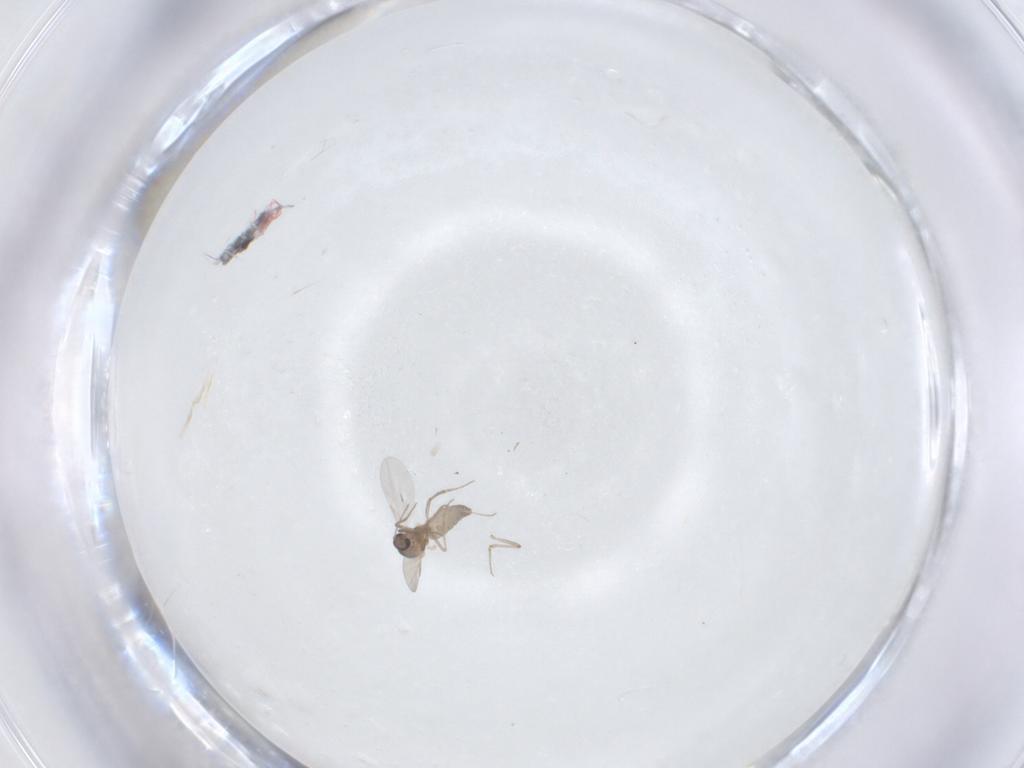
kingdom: Animalia
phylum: Arthropoda
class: Insecta
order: Diptera
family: Ceratopogonidae
